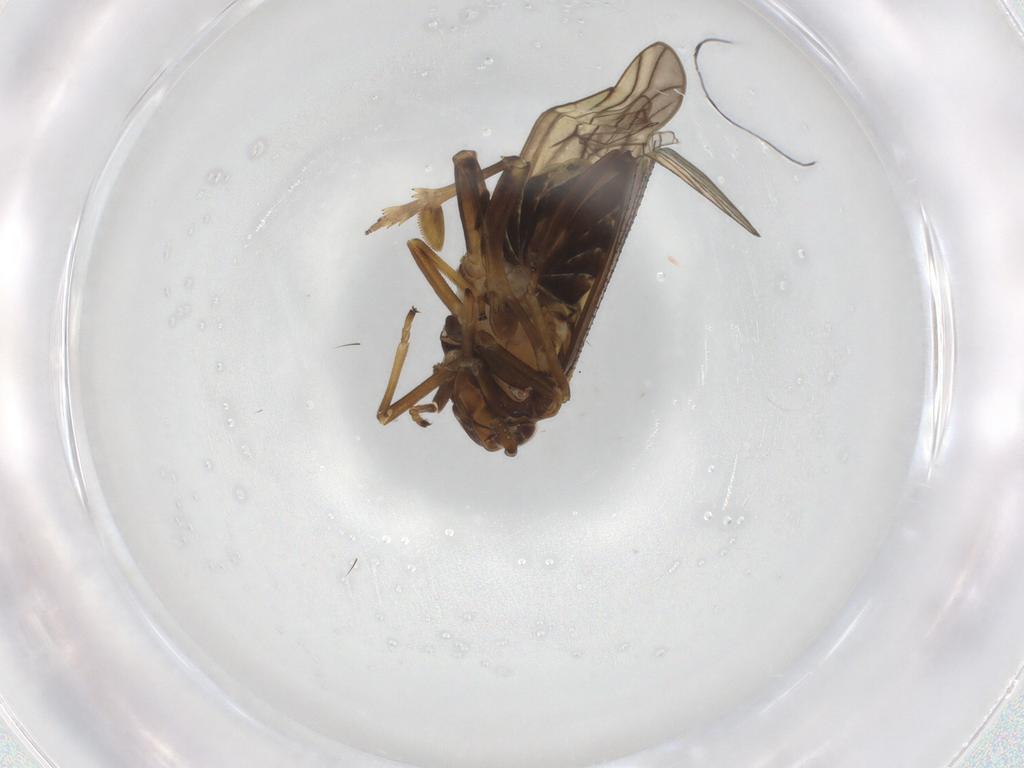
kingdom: Animalia
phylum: Arthropoda
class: Insecta
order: Hemiptera
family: Delphacidae
